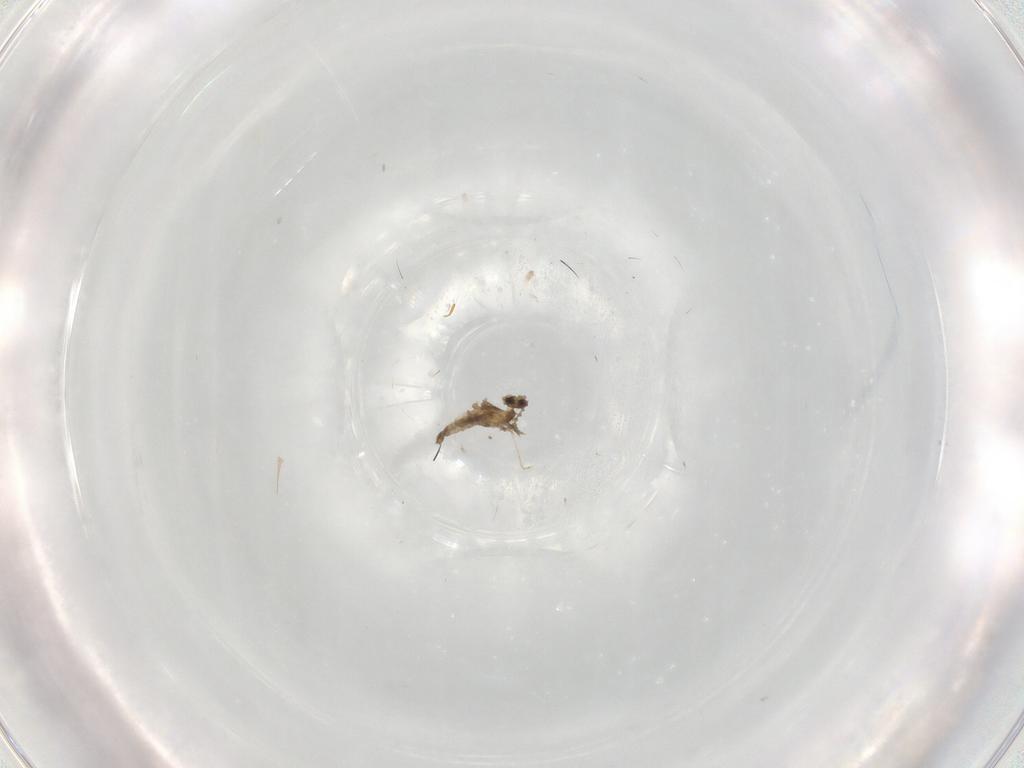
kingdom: Animalia
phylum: Arthropoda
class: Insecta
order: Diptera
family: Cecidomyiidae
